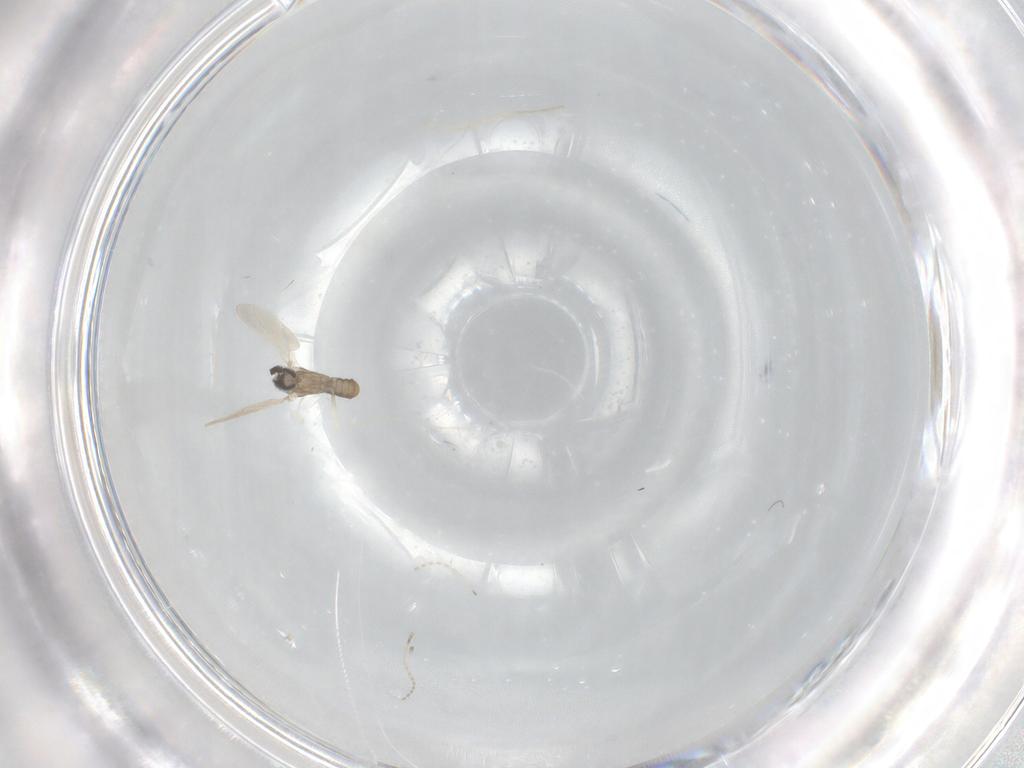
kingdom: Animalia
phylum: Arthropoda
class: Insecta
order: Diptera
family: Cecidomyiidae
